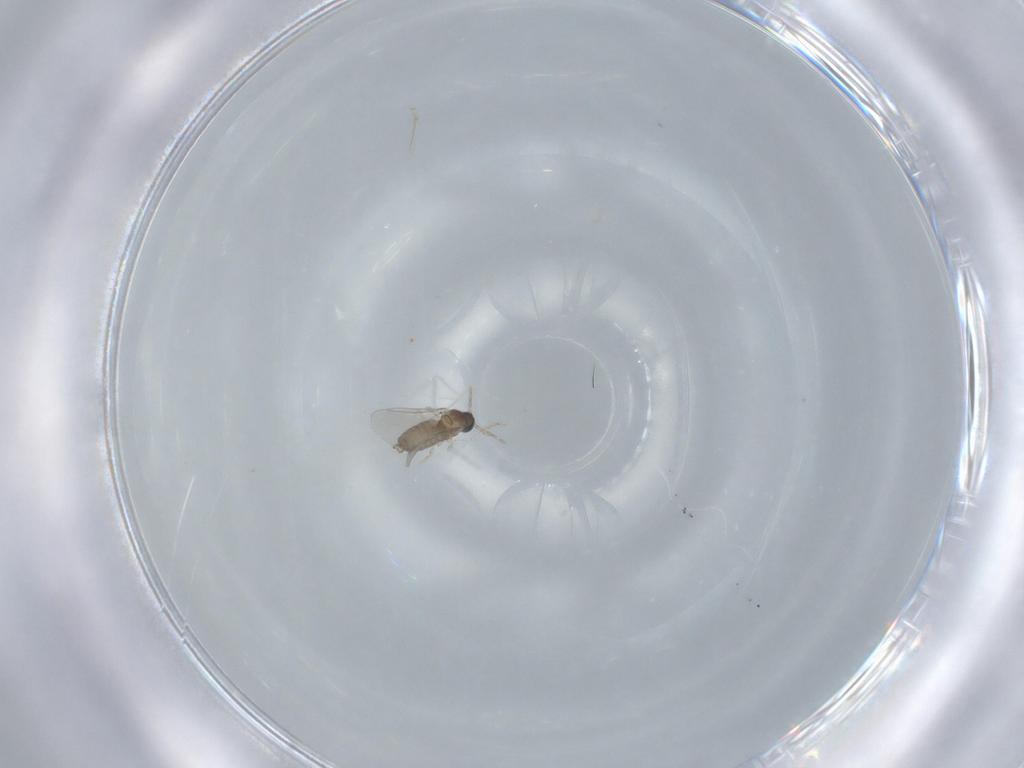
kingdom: Animalia
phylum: Arthropoda
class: Insecta
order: Diptera
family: Cecidomyiidae
